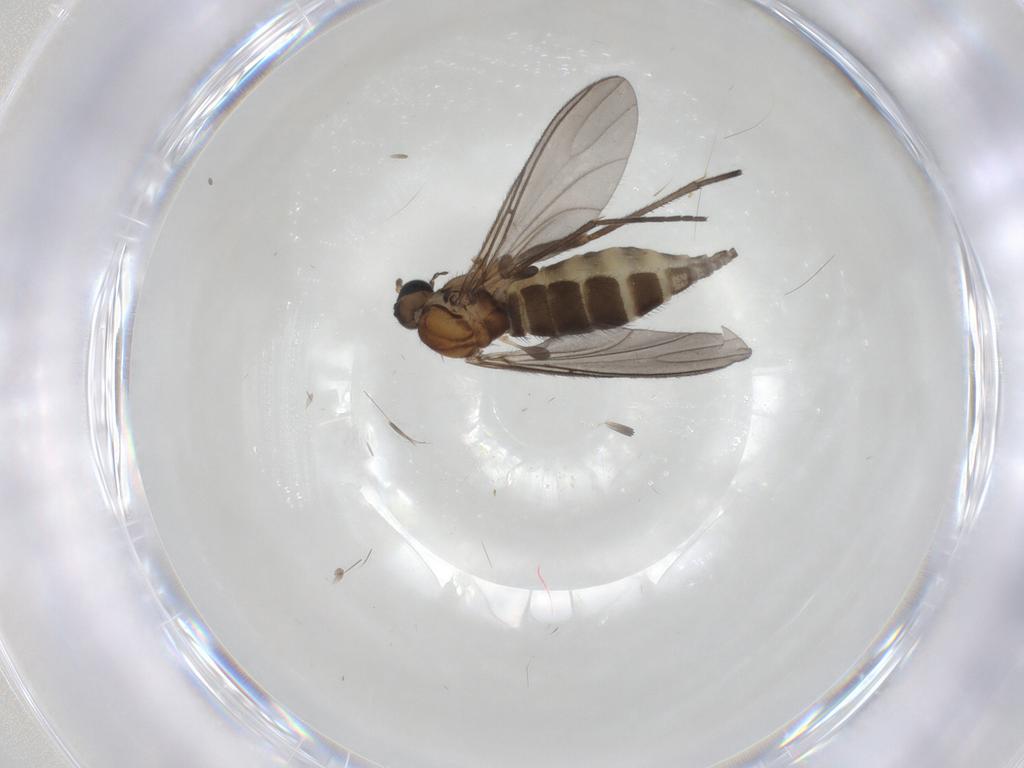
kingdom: Animalia
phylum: Arthropoda
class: Insecta
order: Diptera
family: Sciaridae
